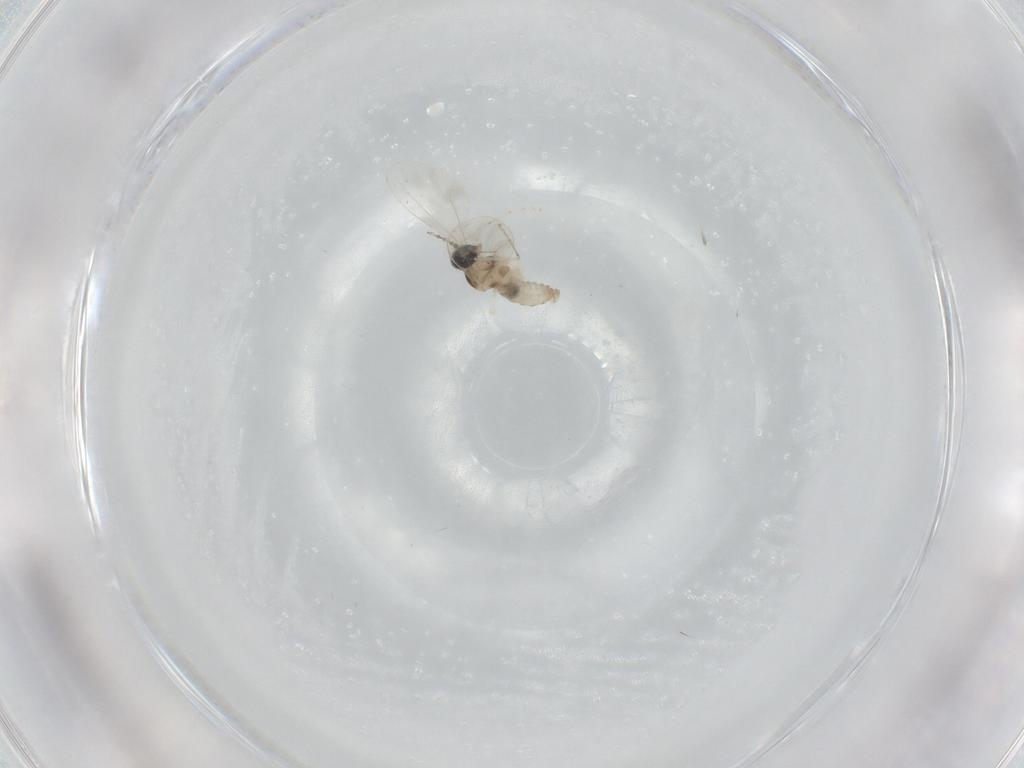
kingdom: Animalia
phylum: Arthropoda
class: Insecta
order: Diptera
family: Cecidomyiidae
